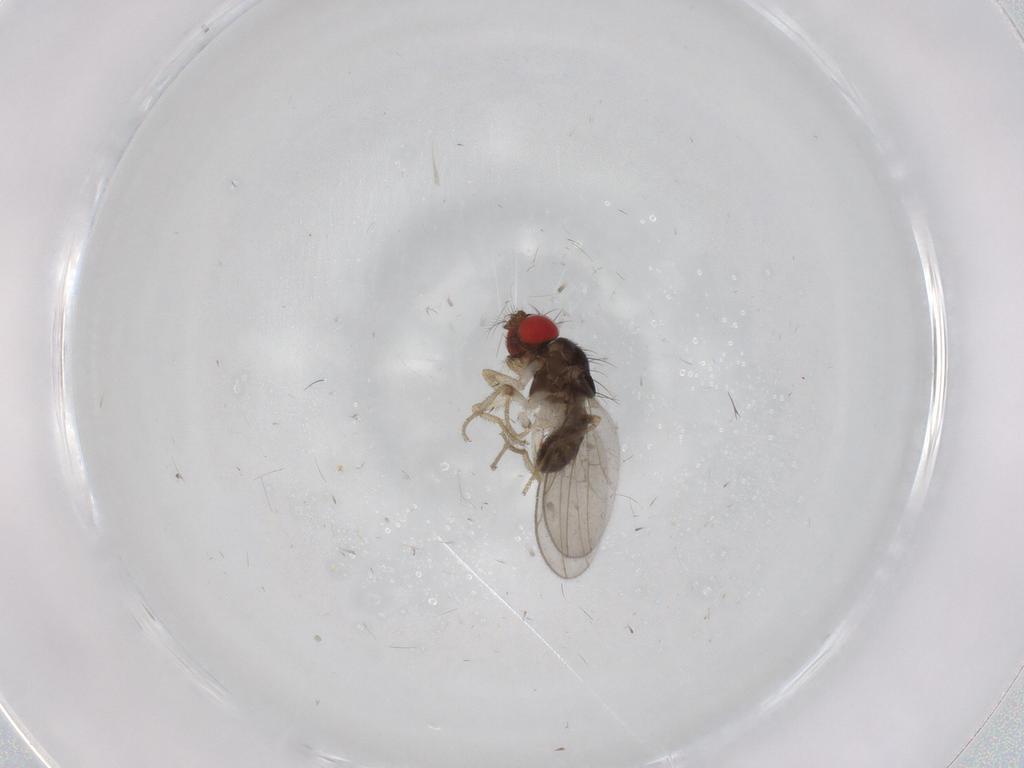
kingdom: Animalia
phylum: Arthropoda
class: Insecta
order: Diptera
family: Drosophilidae
